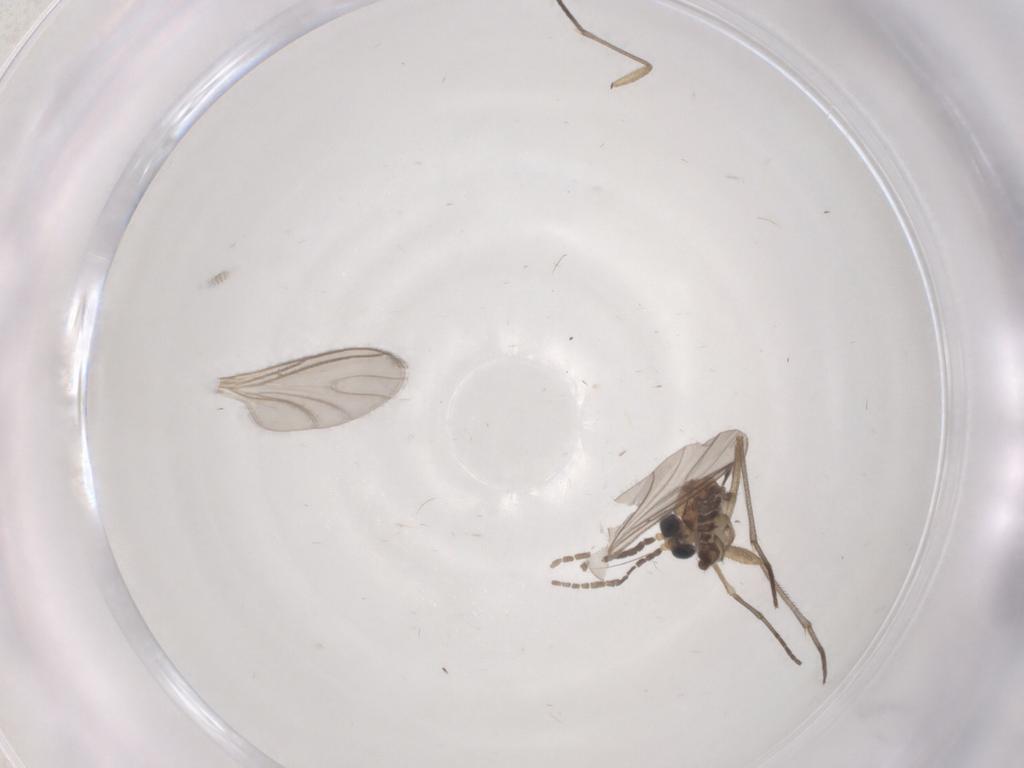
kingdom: Animalia
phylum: Arthropoda
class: Insecta
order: Diptera
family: Sciaridae
